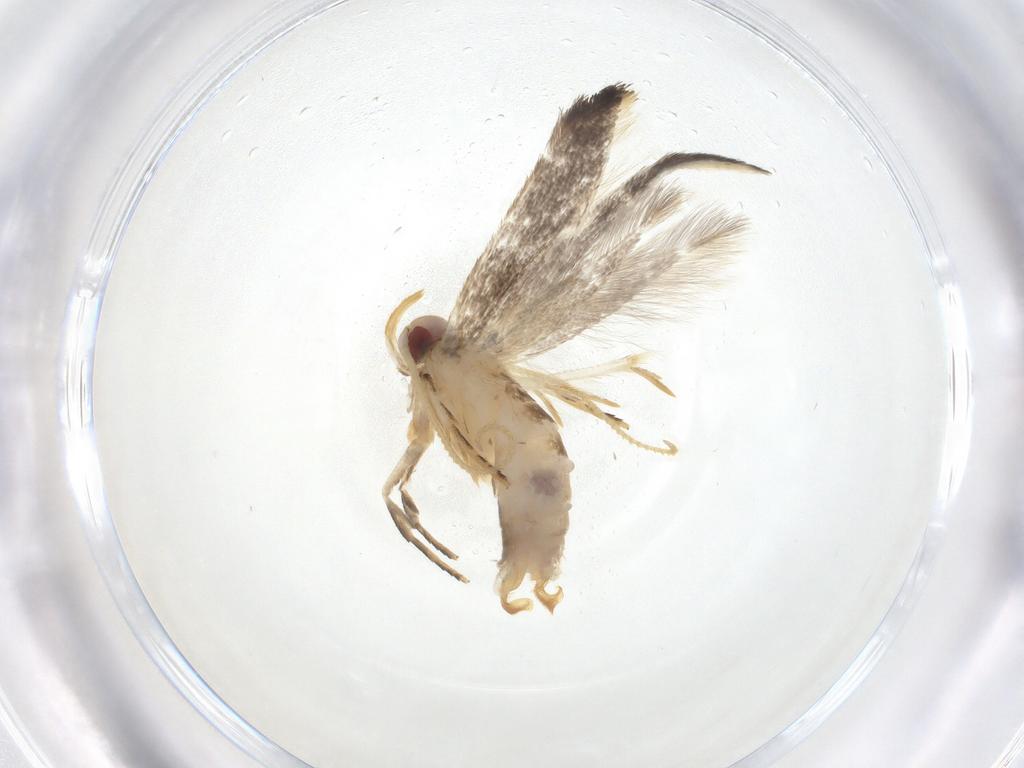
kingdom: Animalia
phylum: Arthropoda
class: Insecta
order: Lepidoptera
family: Cosmopterigidae
